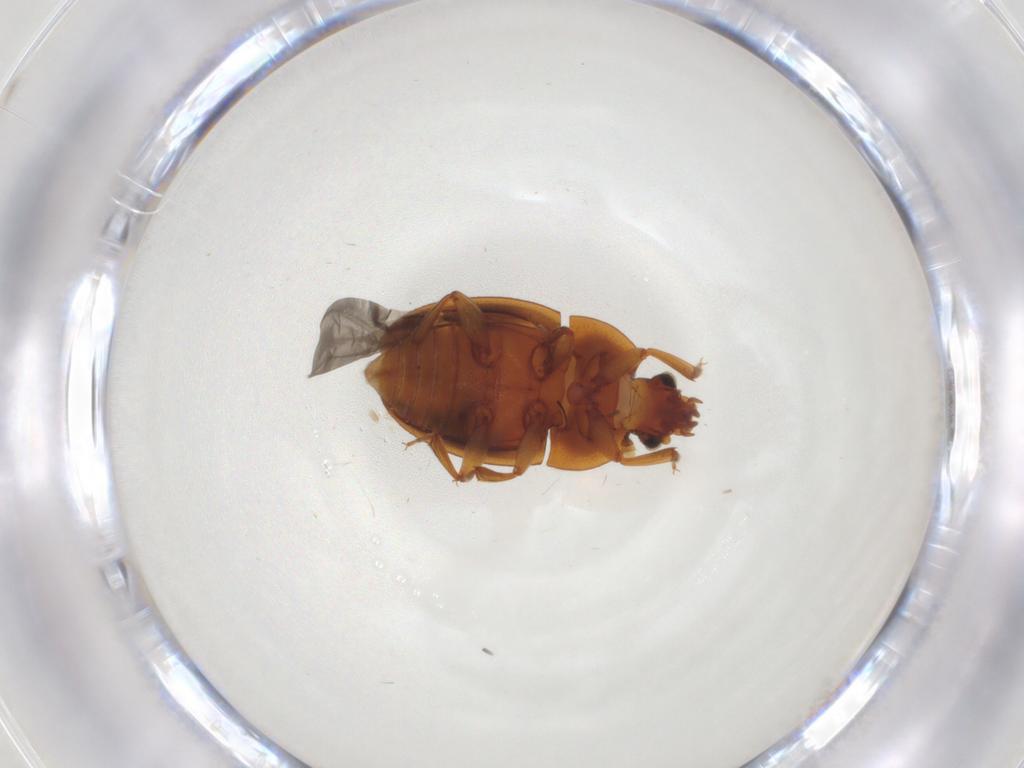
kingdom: Animalia
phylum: Arthropoda
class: Insecta
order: Coleoptera
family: Nitidulidae
